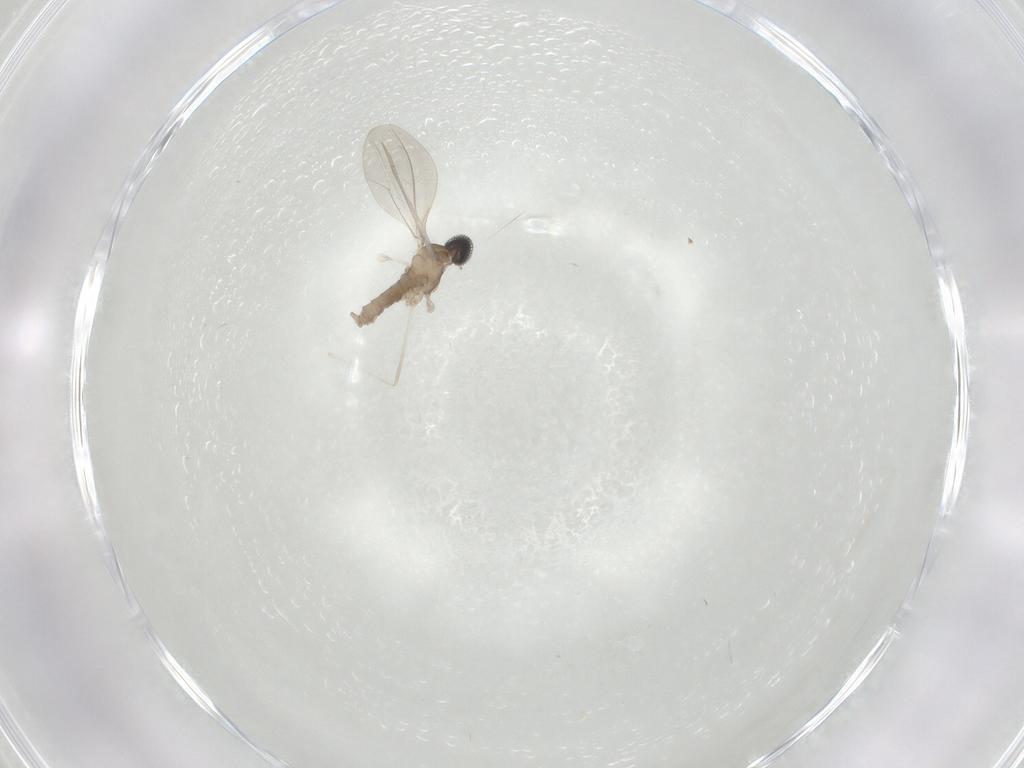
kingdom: Animalia
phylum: Arthropoda
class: Insecta
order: Diptera
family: Cecidomyiidae
